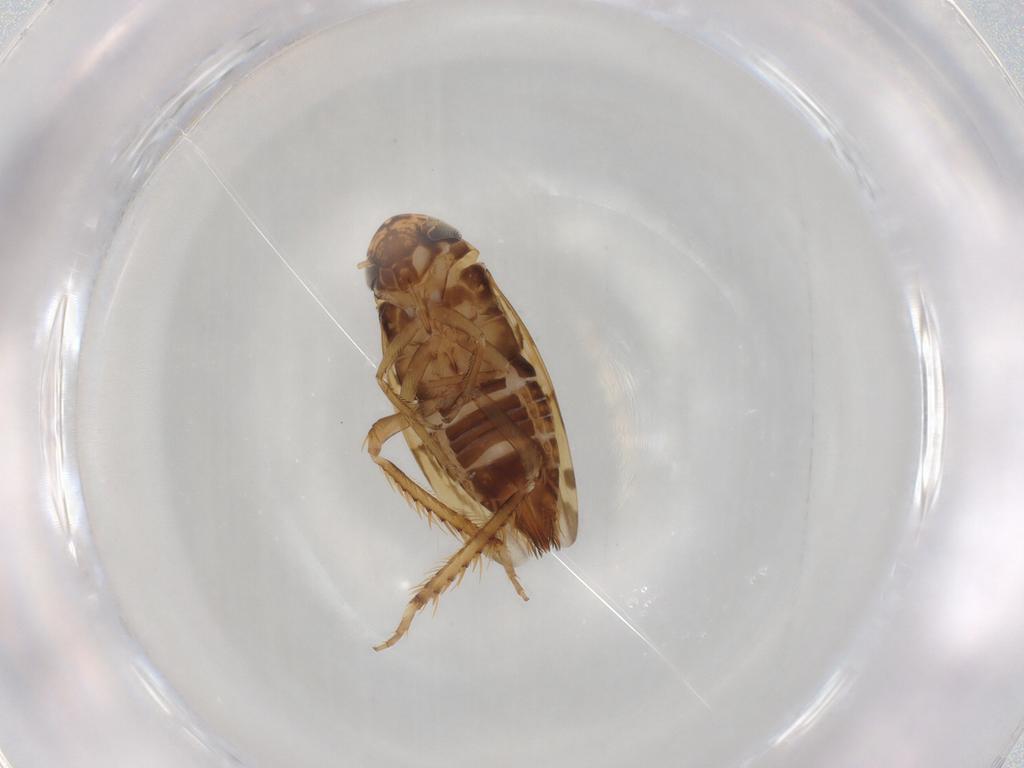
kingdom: Animalia
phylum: Arthropoda
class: Insecta
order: Hemiptera
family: Cicadellidae
